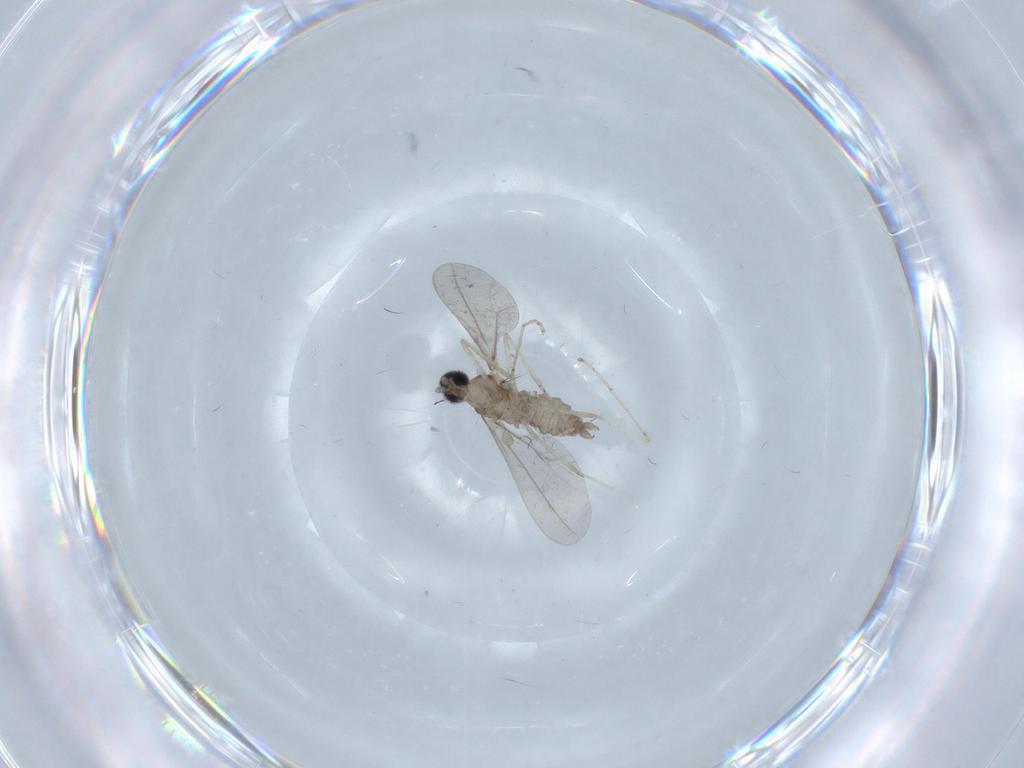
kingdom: Animalia
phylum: Arthropoda
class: Insecta
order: Diptera
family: Cecidomyiidae
